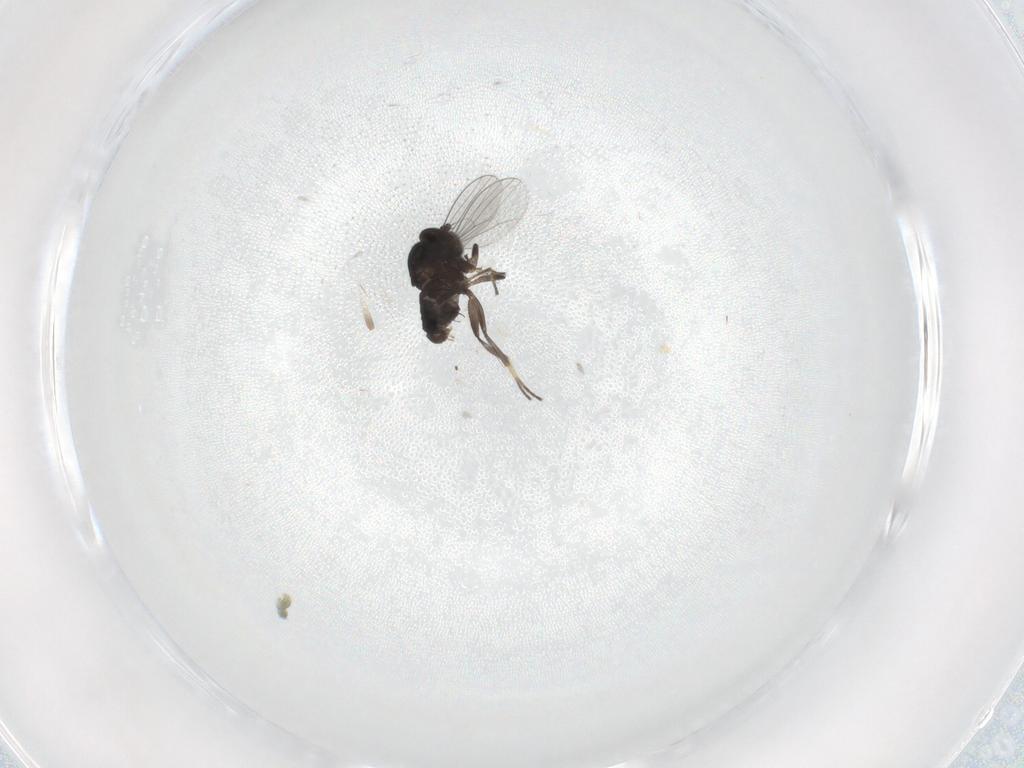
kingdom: Animalia
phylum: Arthropoda
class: Insecta
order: Diptera
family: Dolichopodidae
